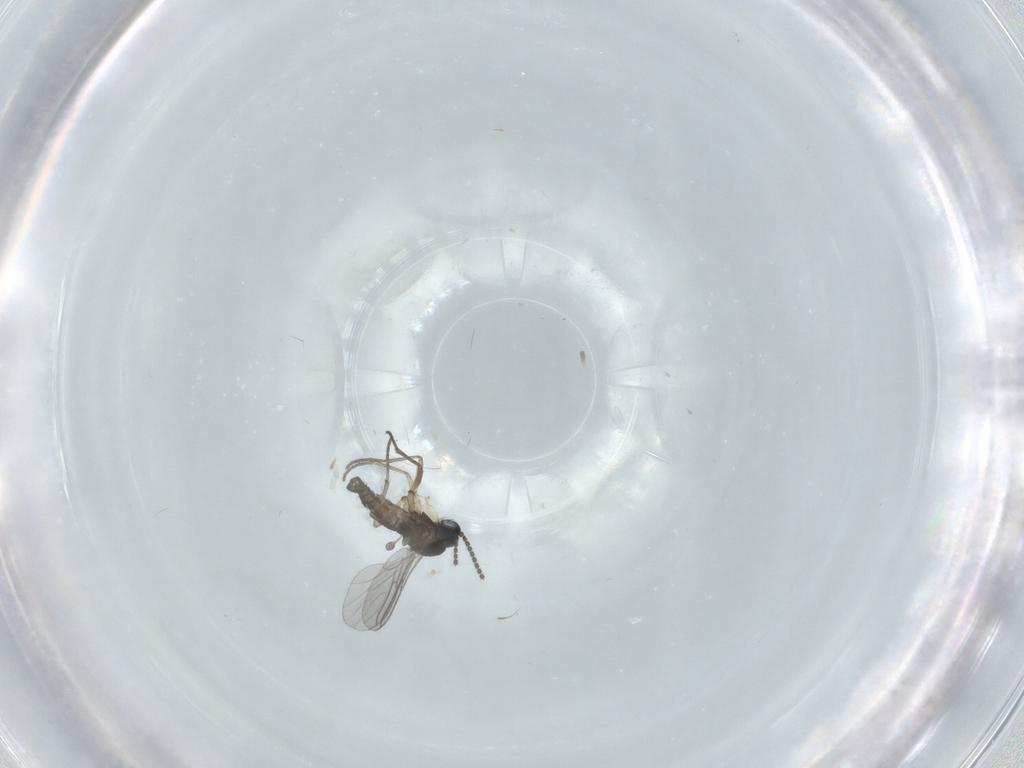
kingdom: Animalia
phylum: Arthropoda
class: Insecta
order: Diptera
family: Sciaridae
